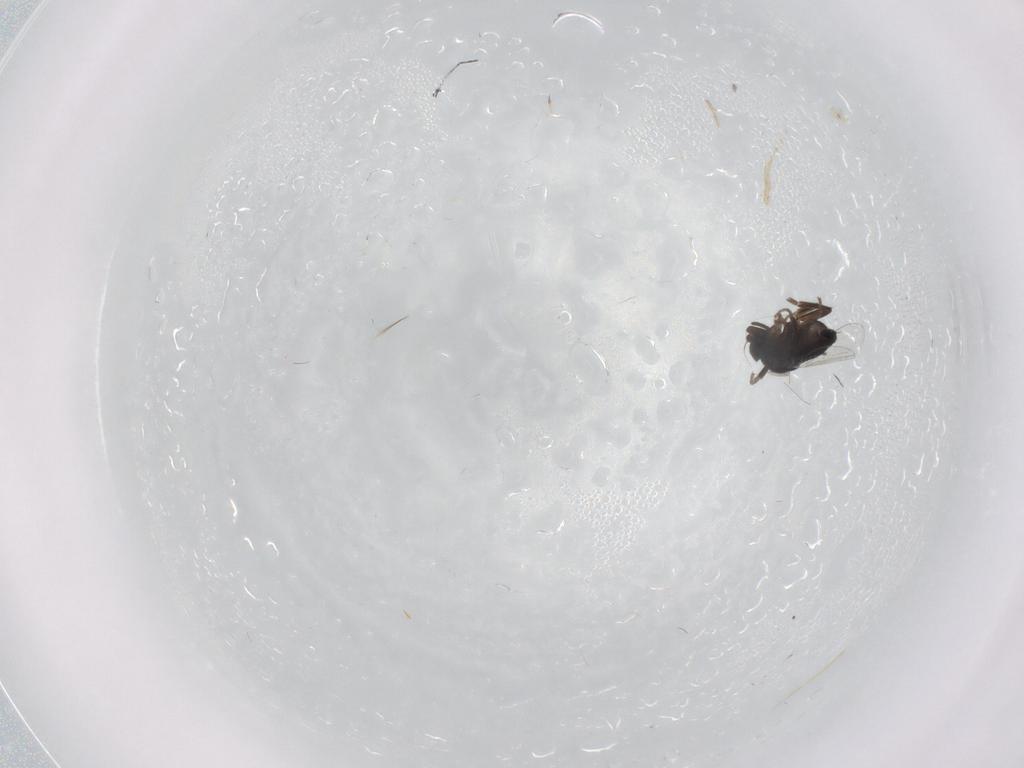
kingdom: Animalia
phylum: Arthropoda
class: Insecta
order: Diptera
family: Phoridae
